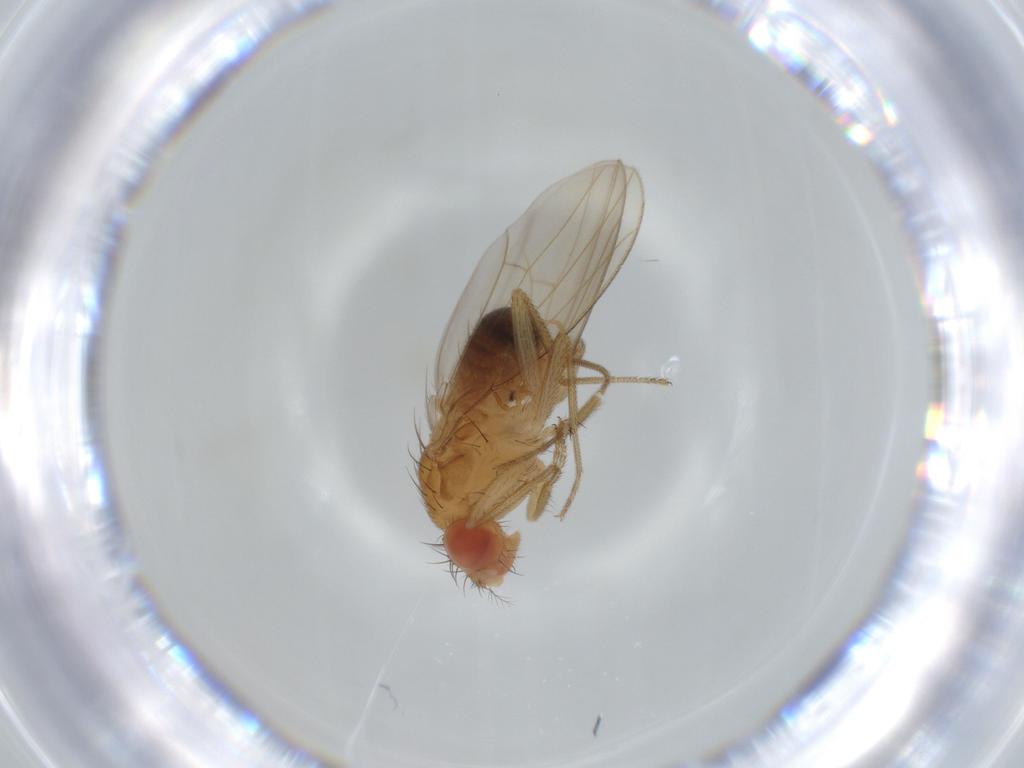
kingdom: Animalia
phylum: Arthropoda
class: Insecta
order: Diptera
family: Drosophilidae
